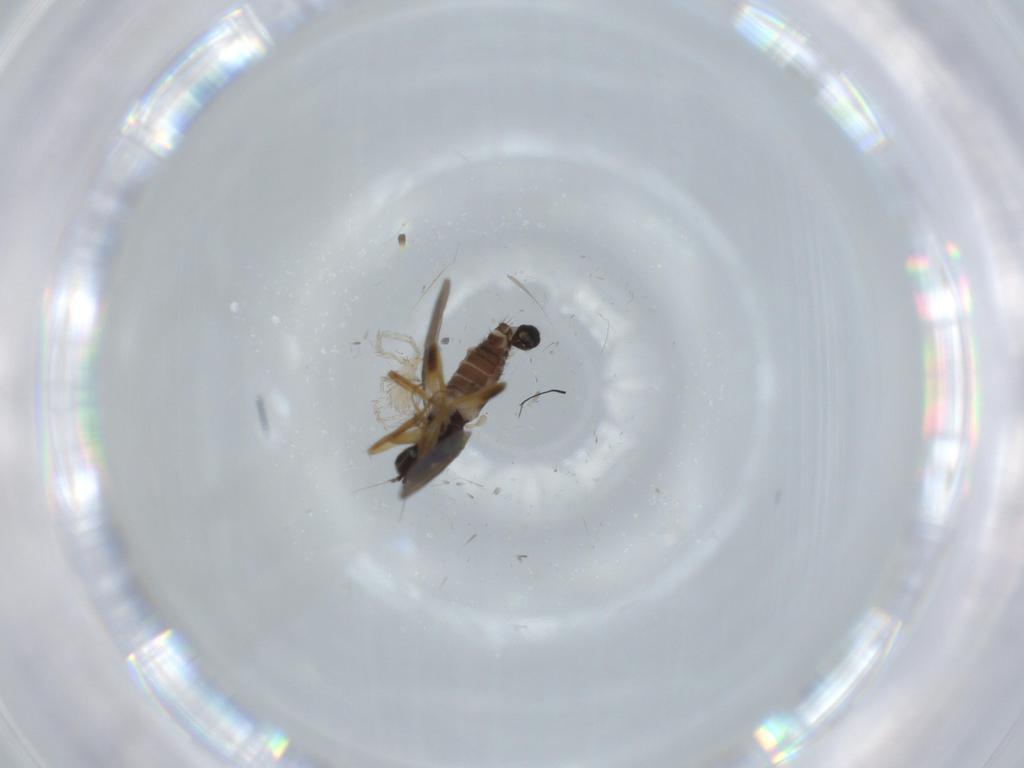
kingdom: Animalia
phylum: Arthropoda
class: Insecta
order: Diptera
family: Hybotidae
